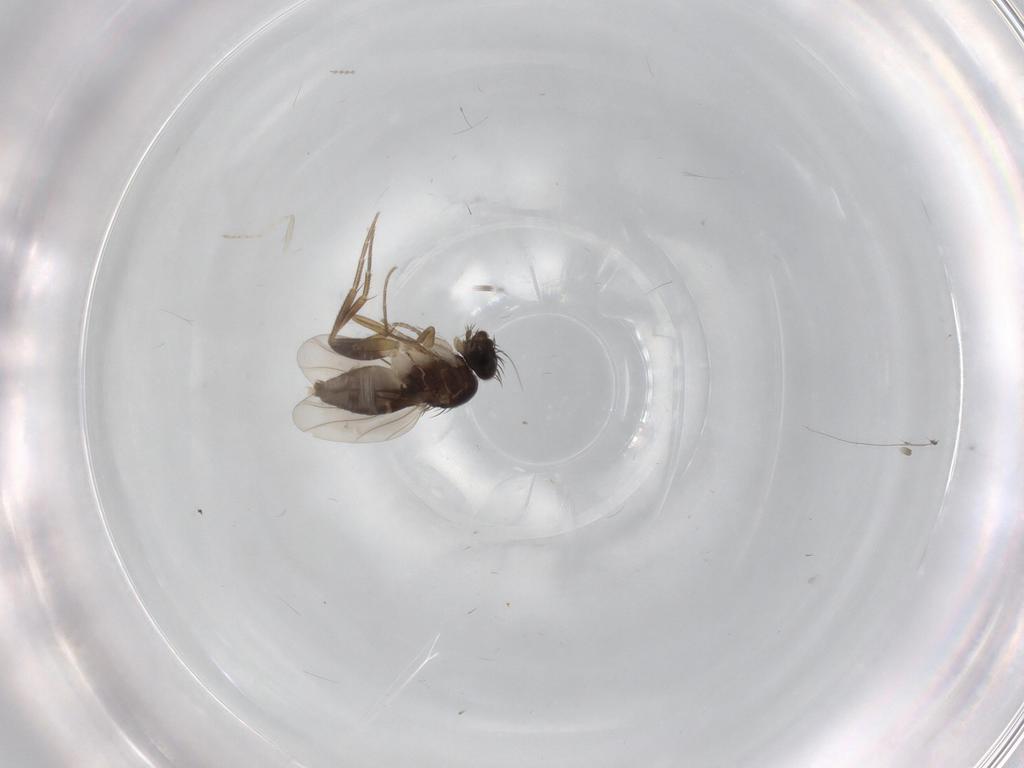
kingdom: Animalia
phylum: Arthropoda
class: Insecta
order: Diptera
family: Phoridae
